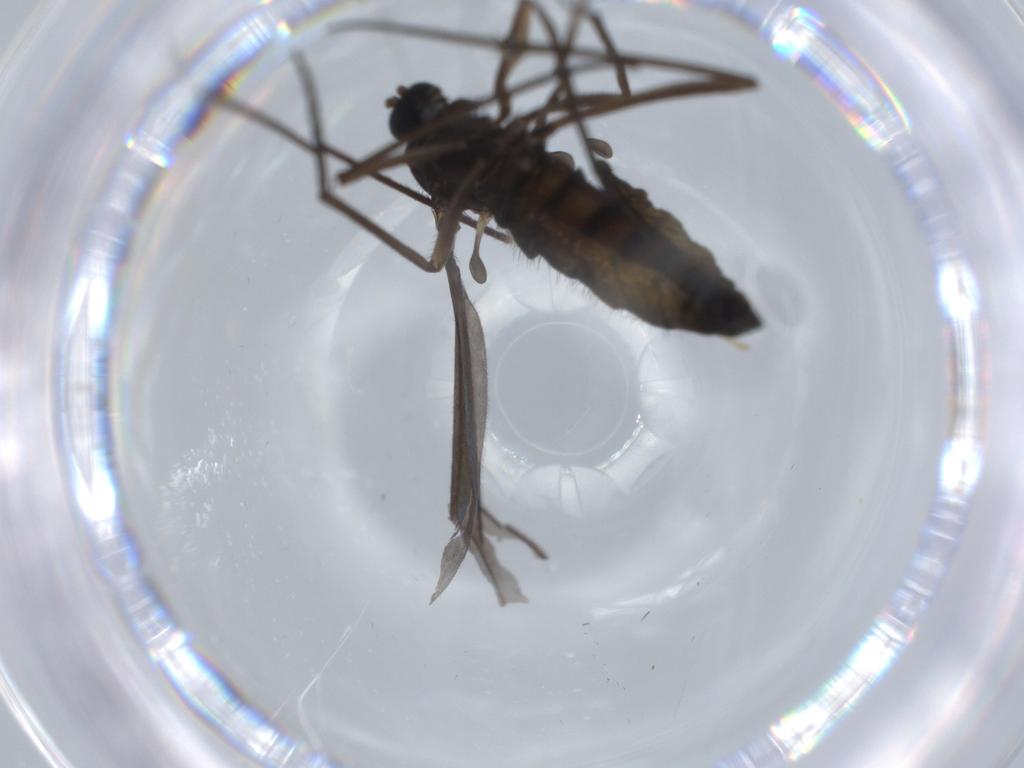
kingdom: Animalia
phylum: Arthropoda
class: Insecta
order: Diptera
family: Sciaridae
